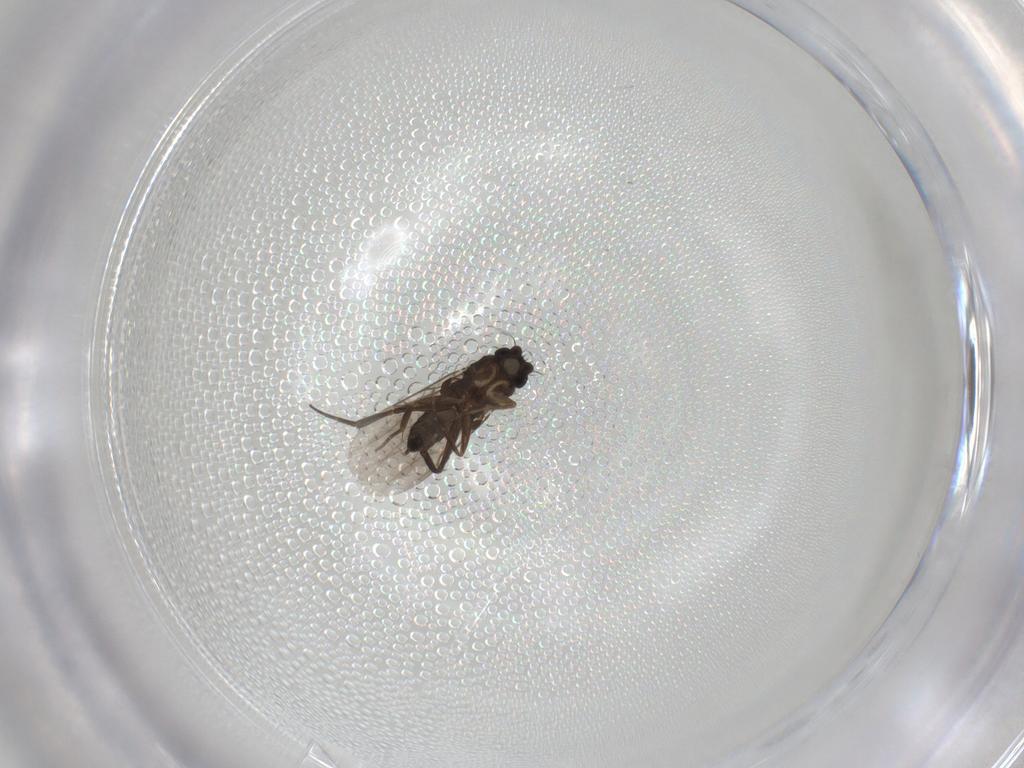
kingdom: Animalia
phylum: Arthropoda
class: Insecta
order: Diptera
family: Phoridae
